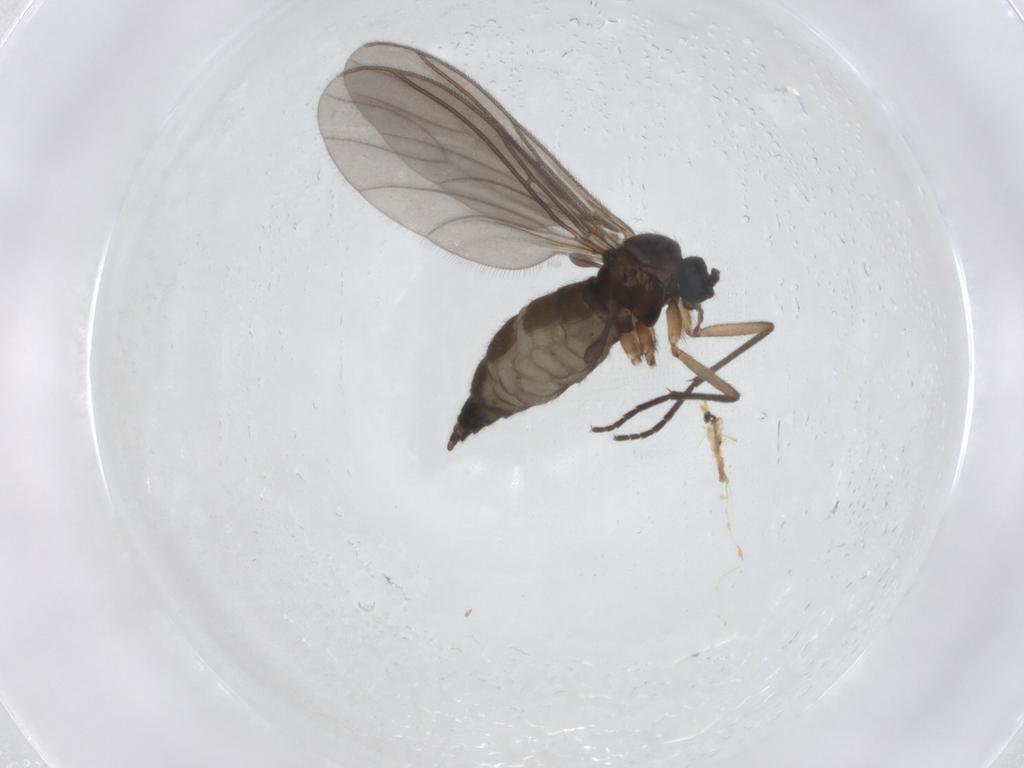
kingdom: Animalia
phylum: Arthropoda
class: Insecta
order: Diptera
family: Sciaridae
